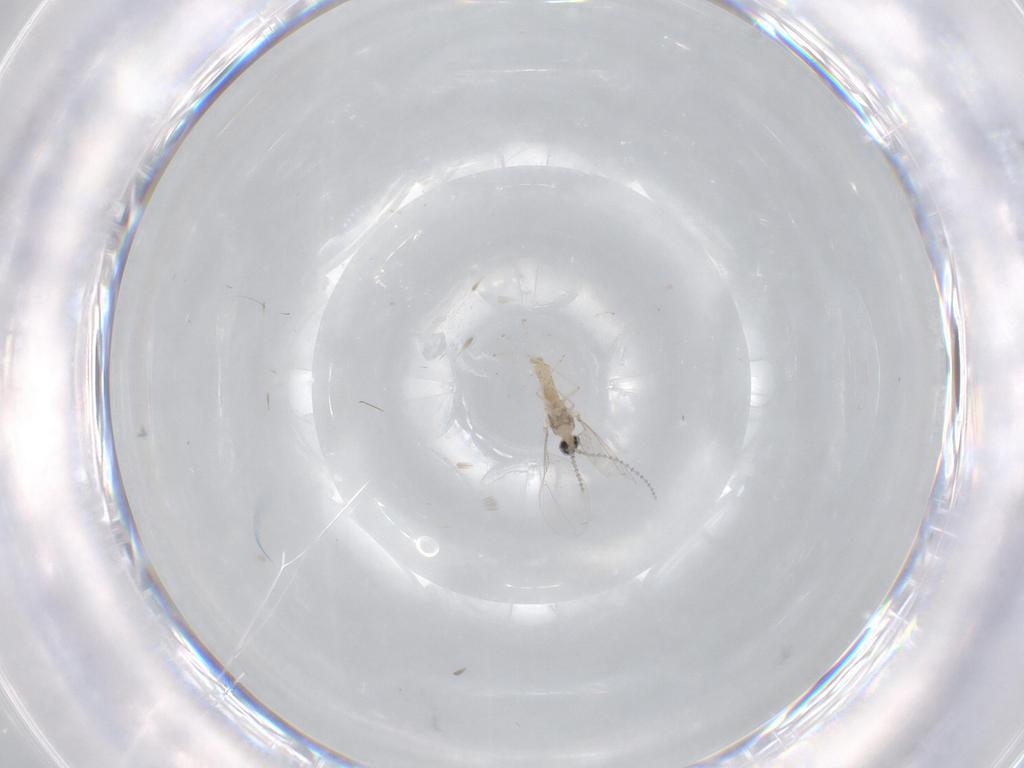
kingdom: Animalia
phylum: Arthropoda
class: Insecta
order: Diptera
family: Cecidomyiidae
